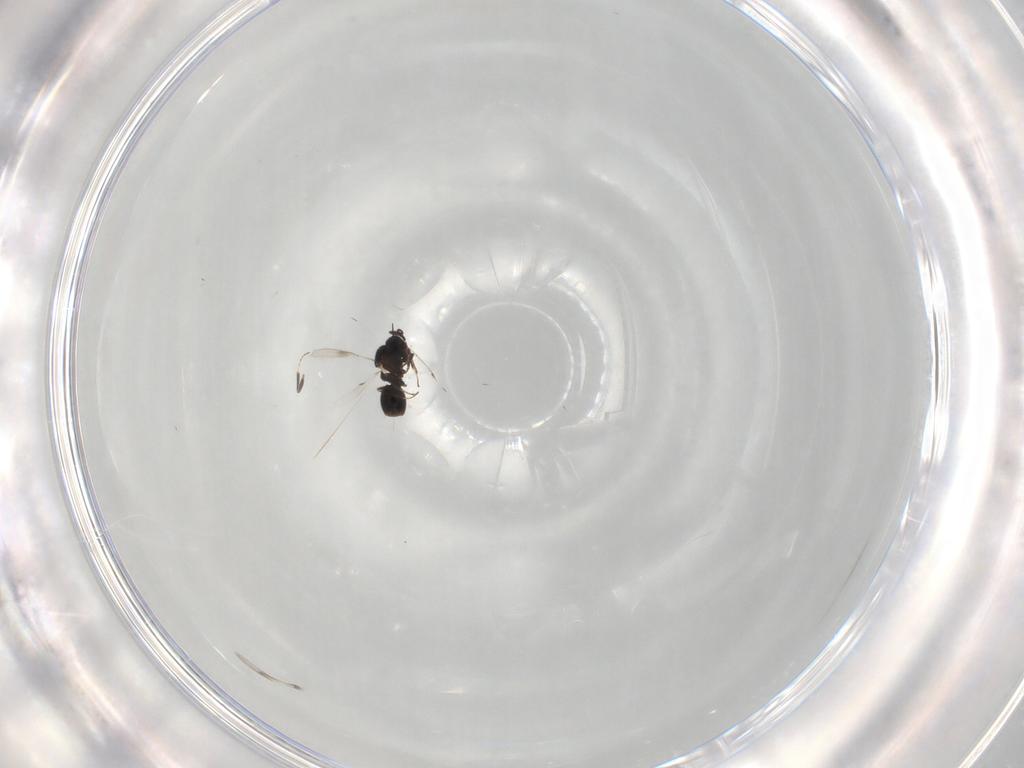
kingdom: Animalia
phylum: Arthropoda
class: Insecta
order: Hymenoptera
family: Scelionidae
